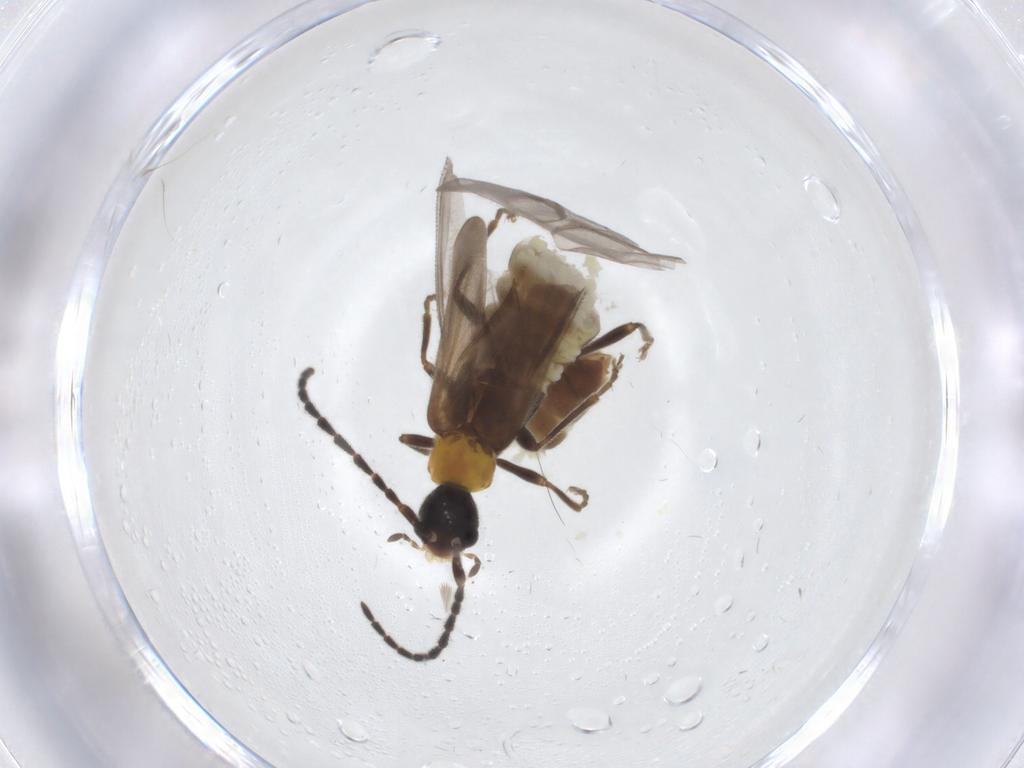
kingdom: Animalia
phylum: Arthropoda
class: Insecta
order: Coleoptera
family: Cantharidae
